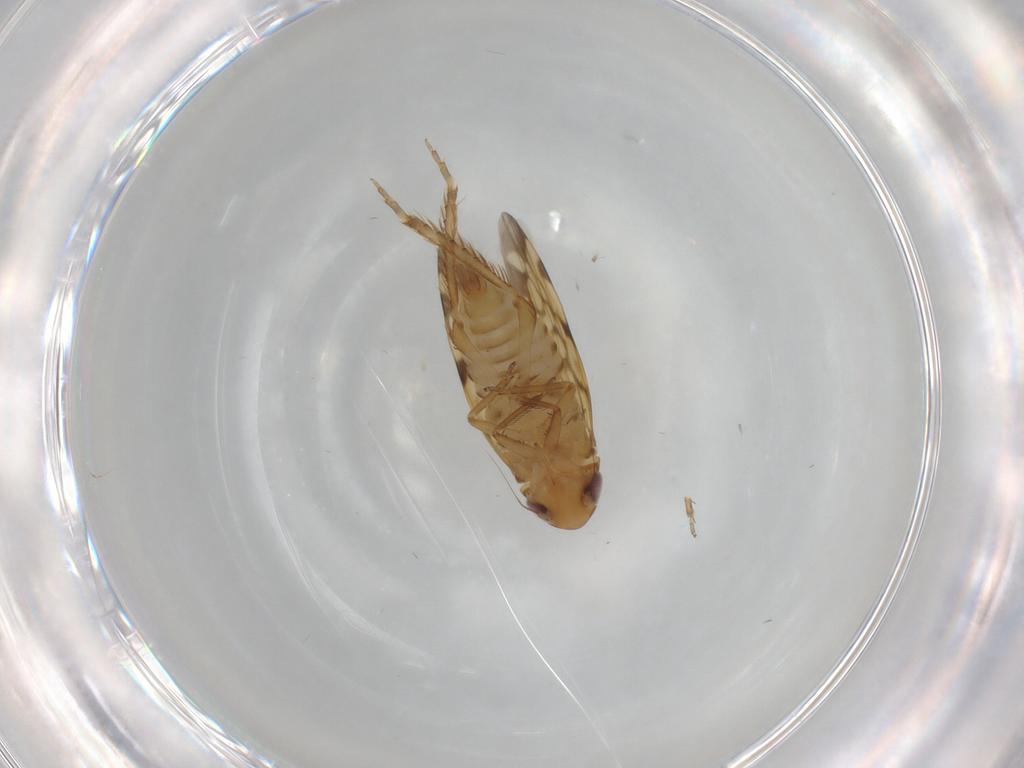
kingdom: Animalia
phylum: Arthropoda
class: Insecta
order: Hemiptera
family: Cicadellidae
